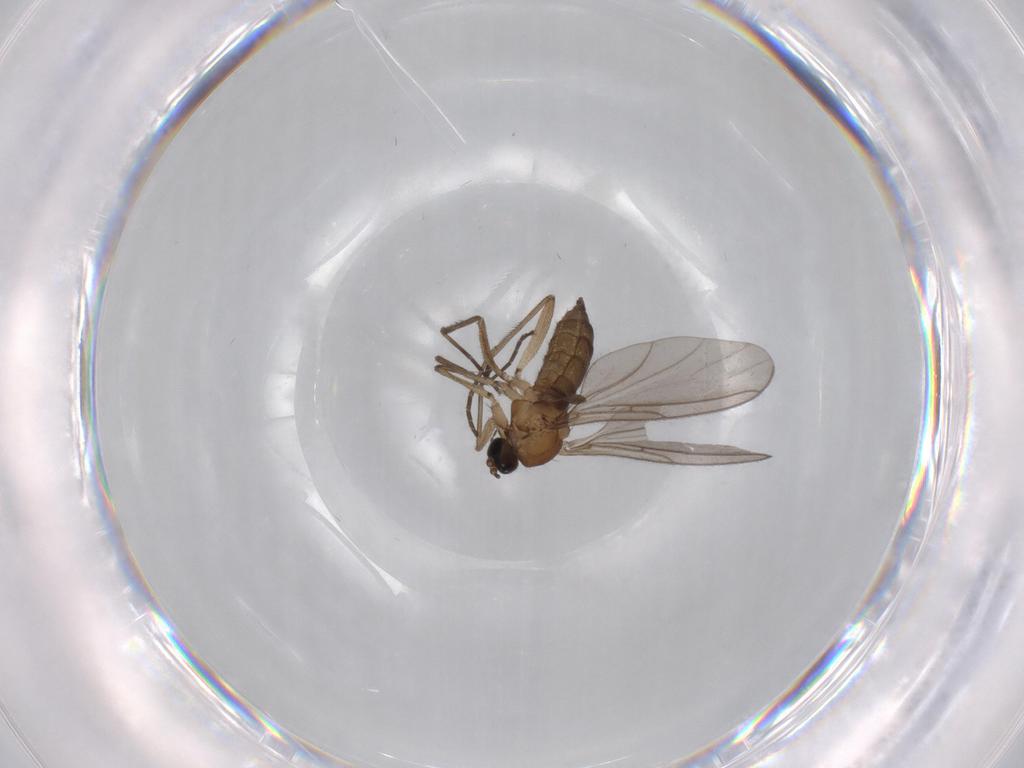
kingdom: Animalia
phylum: Arthropoda
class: Insecta
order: Diptera
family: Sciaridae
